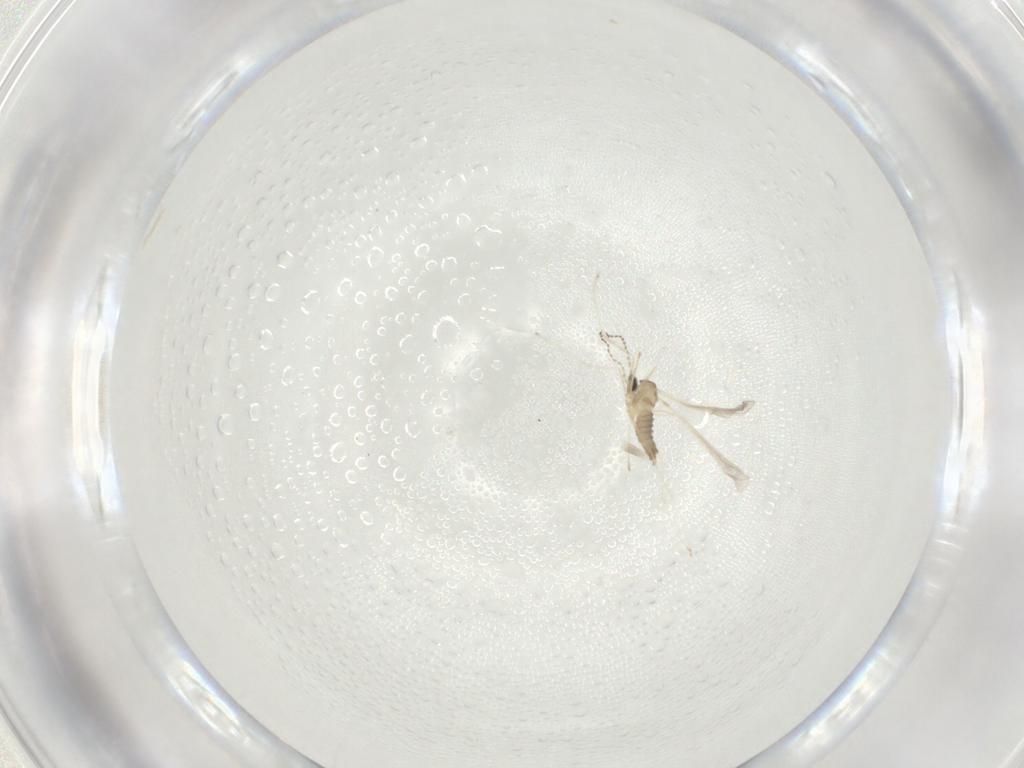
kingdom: Animalia
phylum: Arthropoda
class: Insecta
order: Diptera
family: Cecidomyiidae
